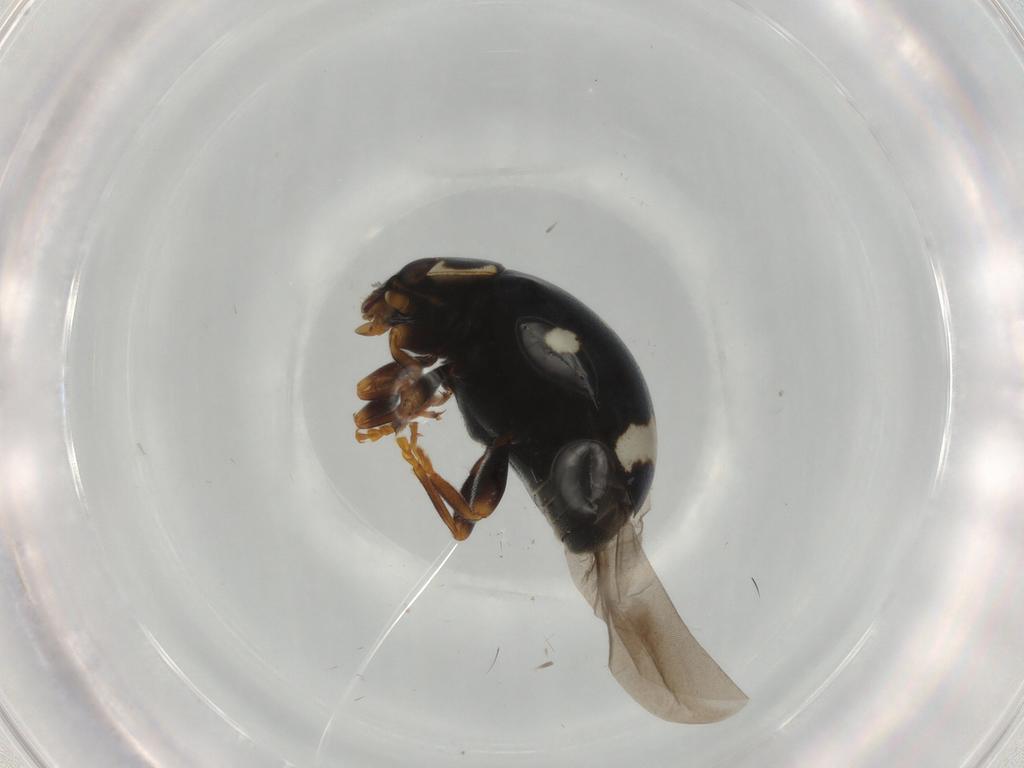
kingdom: Animalia
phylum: Arthropoda
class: Insecta
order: Coleoptera
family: Coccinellidae
